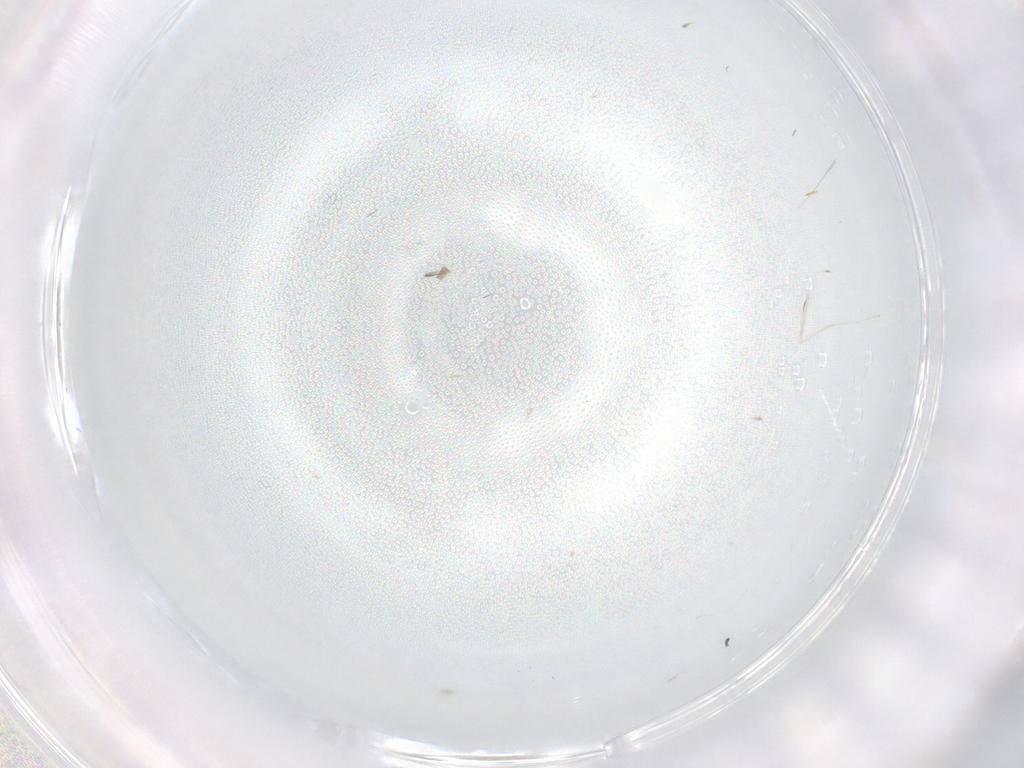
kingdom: Animalia
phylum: Arthropoda
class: Insecta
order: Diptera
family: Cecidomyiidae
